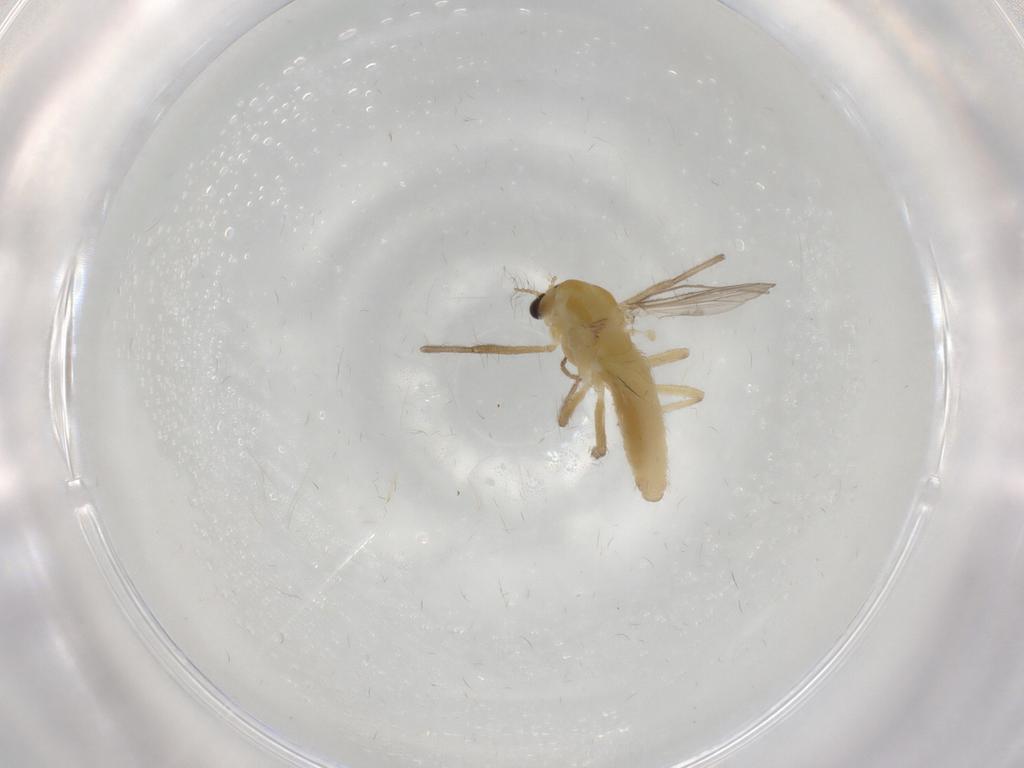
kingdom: Animalia
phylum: Arthropoda
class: Insecta
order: Diptera
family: Chironomidae
